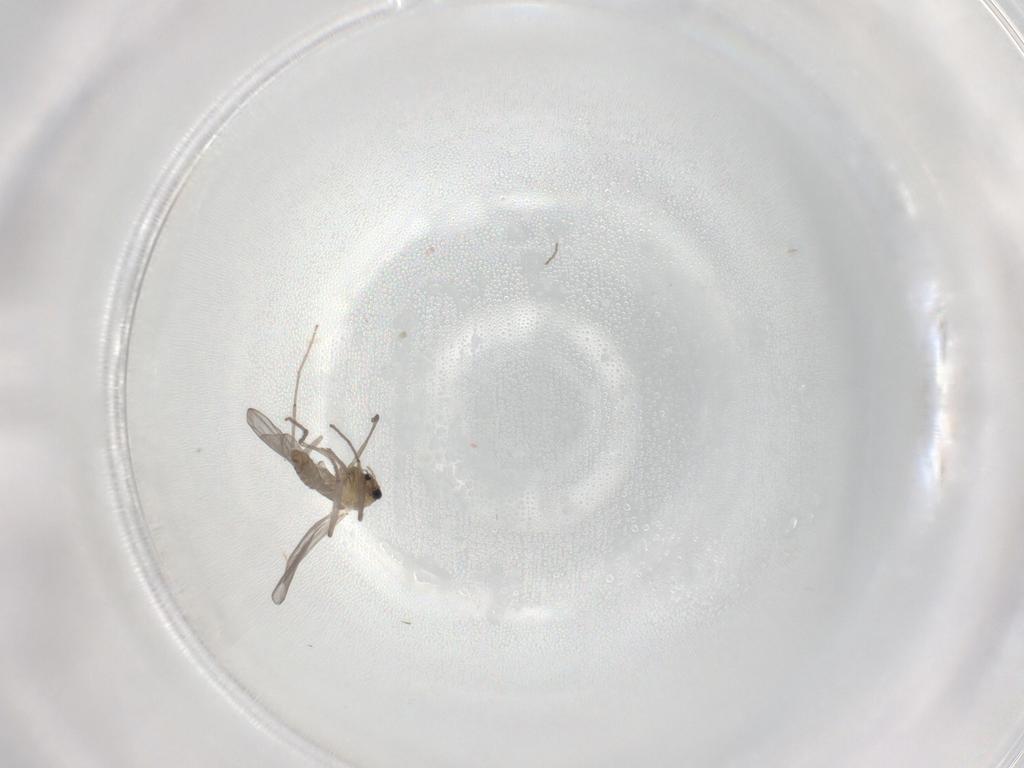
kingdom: Animalia
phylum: Arthropoda
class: Insecta
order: Diptera
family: Chironomidae
